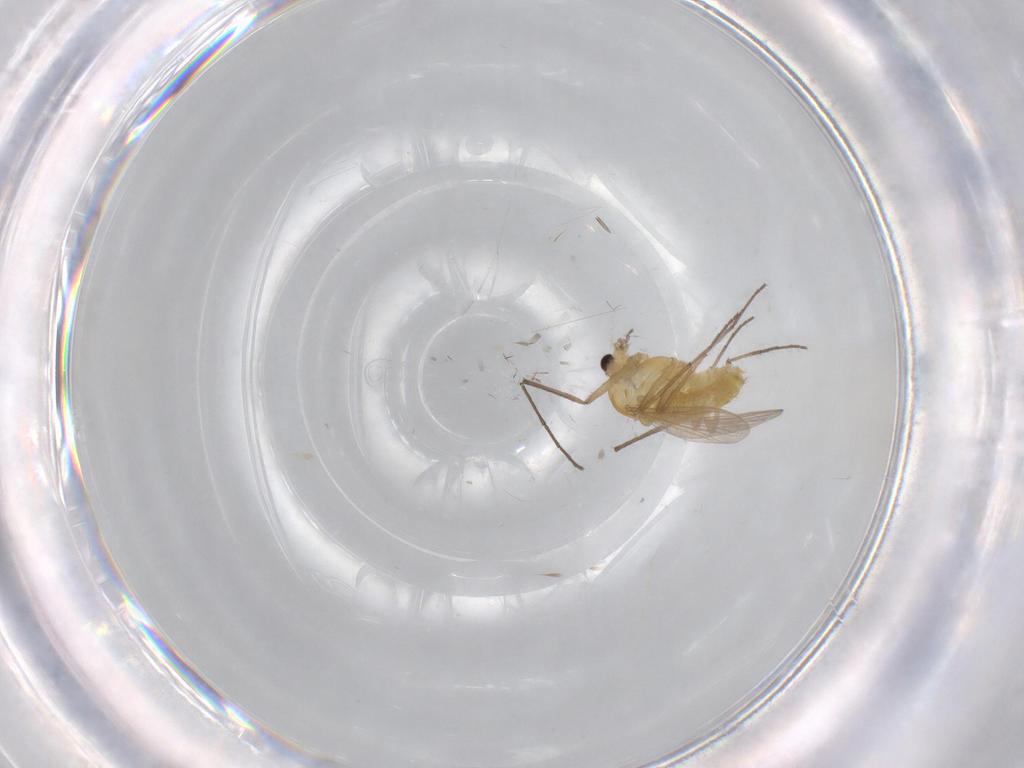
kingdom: Animalia
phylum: Arthropoda
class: Insecta
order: Diptera
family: Chironomidae
